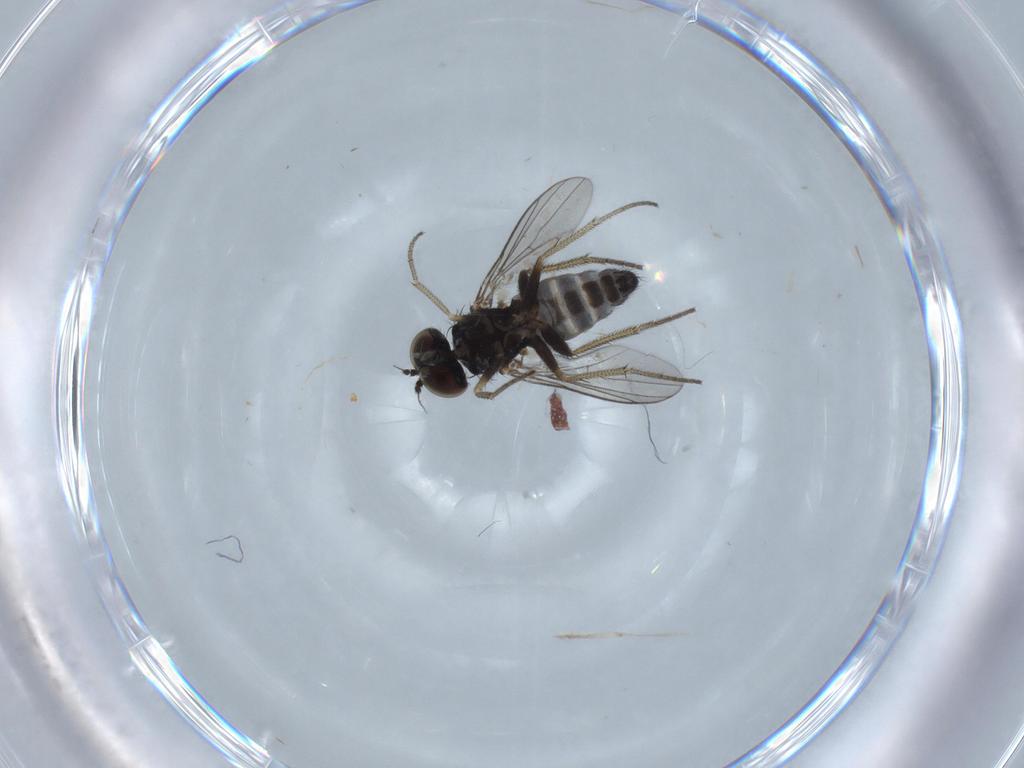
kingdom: Animalia
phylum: Arthropoda
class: Insecta
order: Diptera
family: Dolichopodidae
